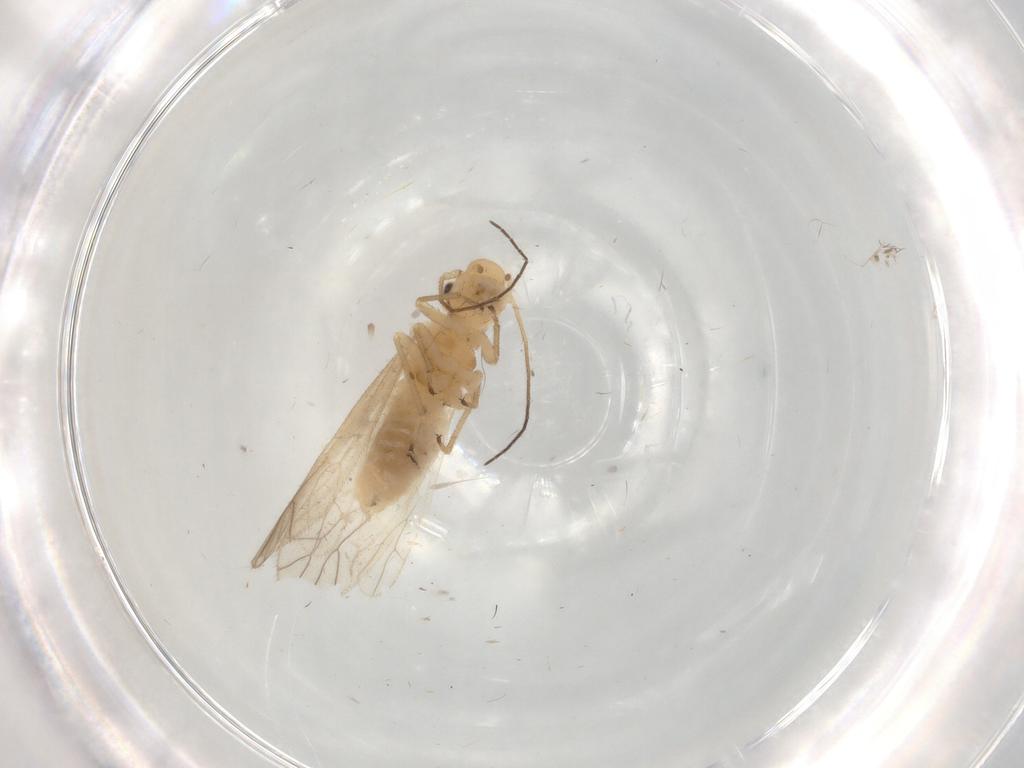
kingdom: Animalia
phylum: Arthropoda
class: Insecta
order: Psocodea
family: Caeciliusidae
